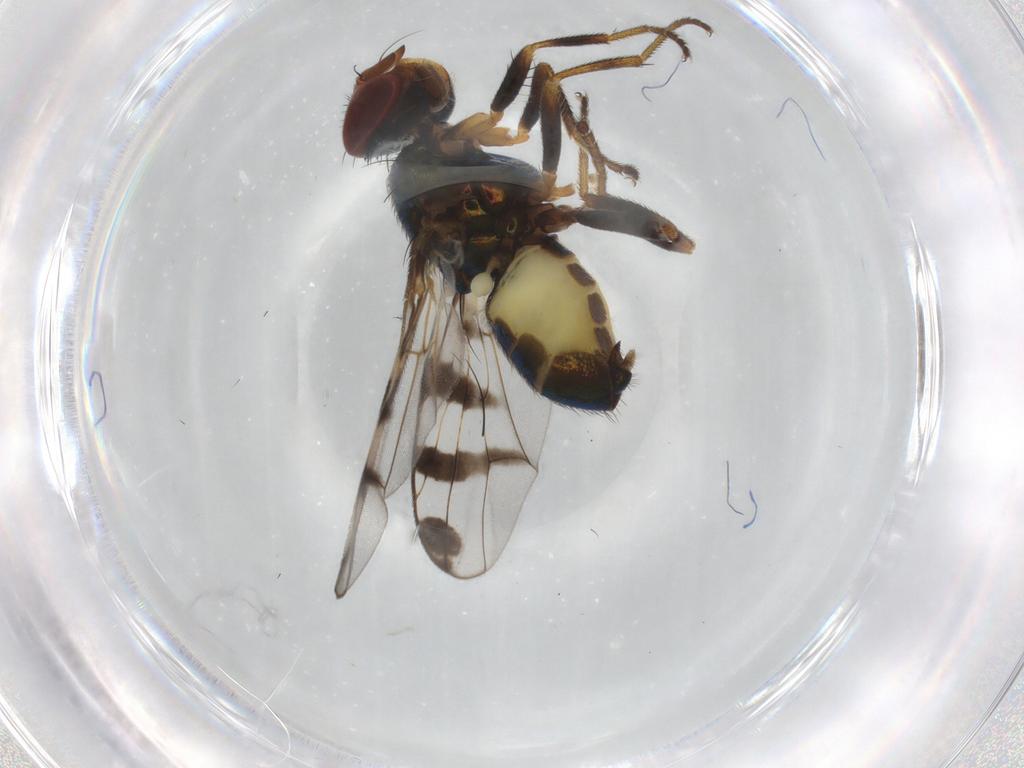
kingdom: Animalia
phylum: Arthropoda
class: Insecta
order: Diptera
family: Platystomatidae
